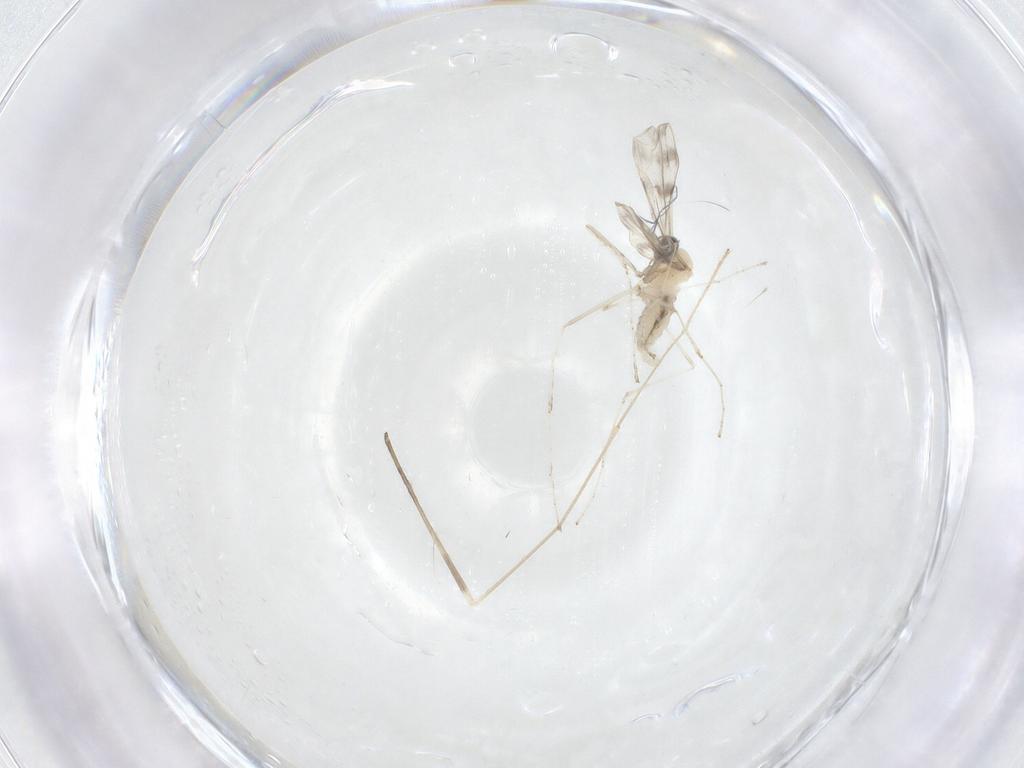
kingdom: Animalia
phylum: Arthropoda
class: Insecta
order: Diptera
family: Cecidomyiidae
